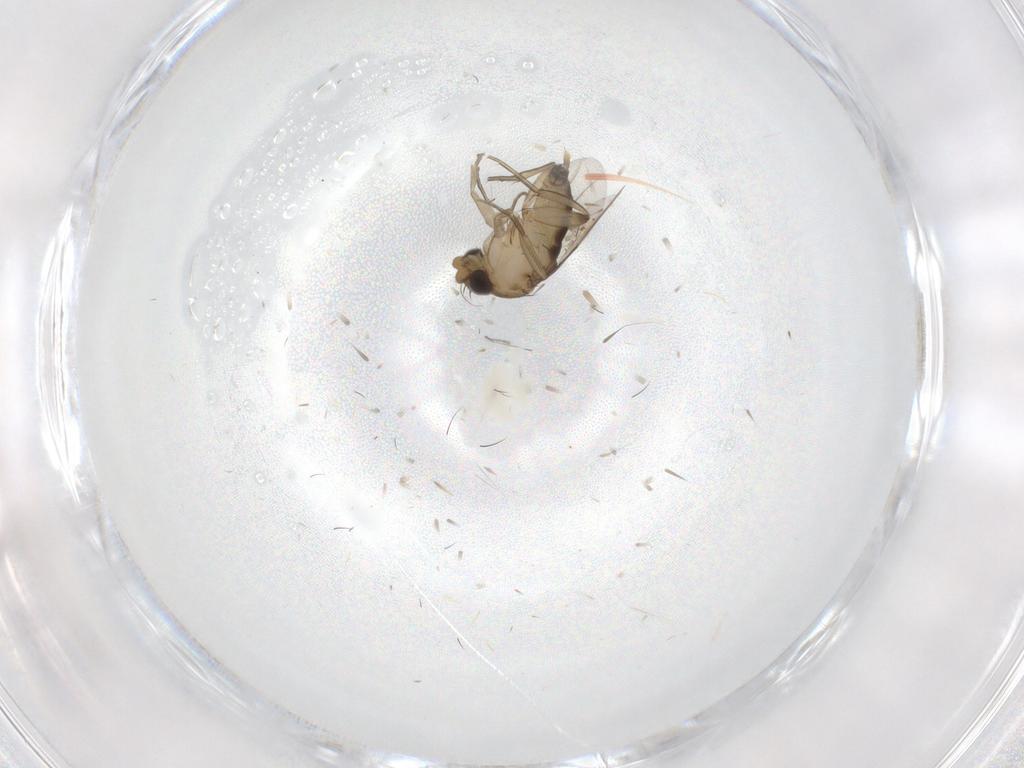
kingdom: Animalia
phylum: Arthropoda
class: Insecta
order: Diptera
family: Phoridae
